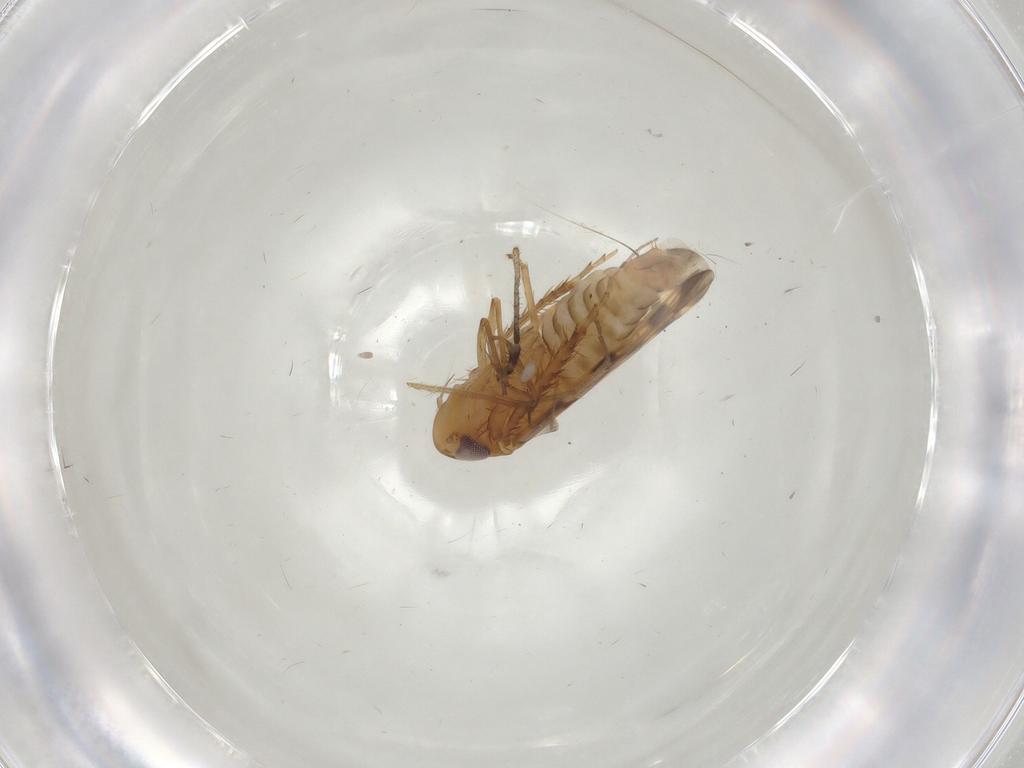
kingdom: Animalia
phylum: Arthropoda
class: Insecta
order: Hemiptera
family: Cicadellidae
